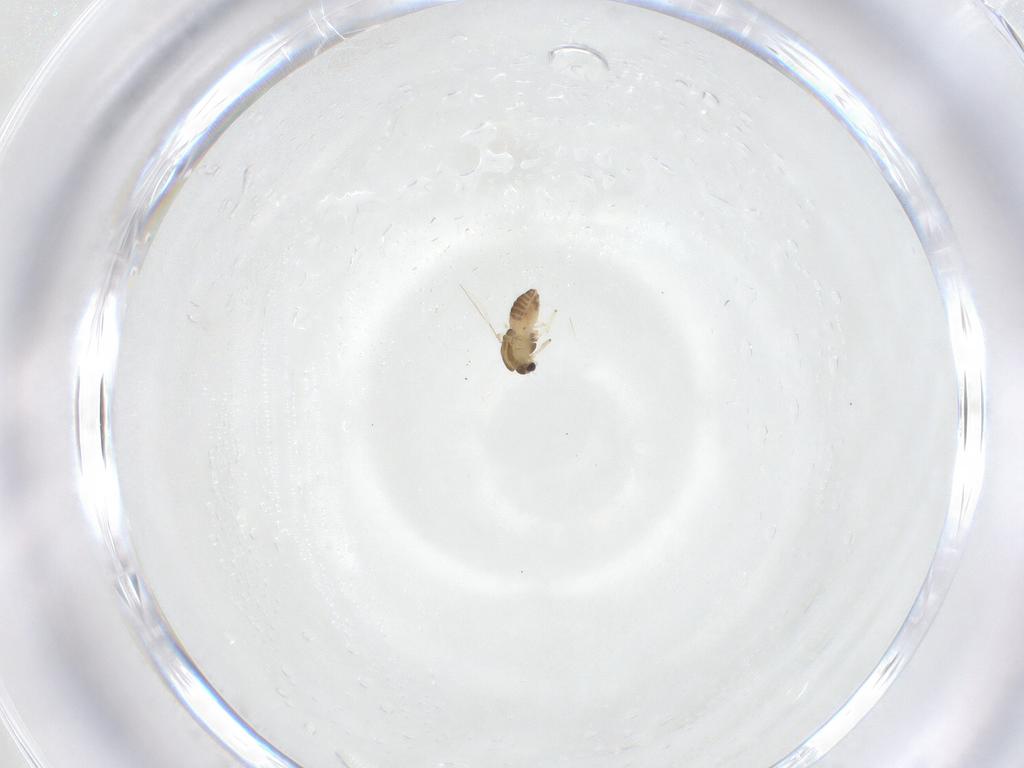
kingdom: Animalia
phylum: Arthropoda
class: Insecta
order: Diptera
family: Chironomidae
